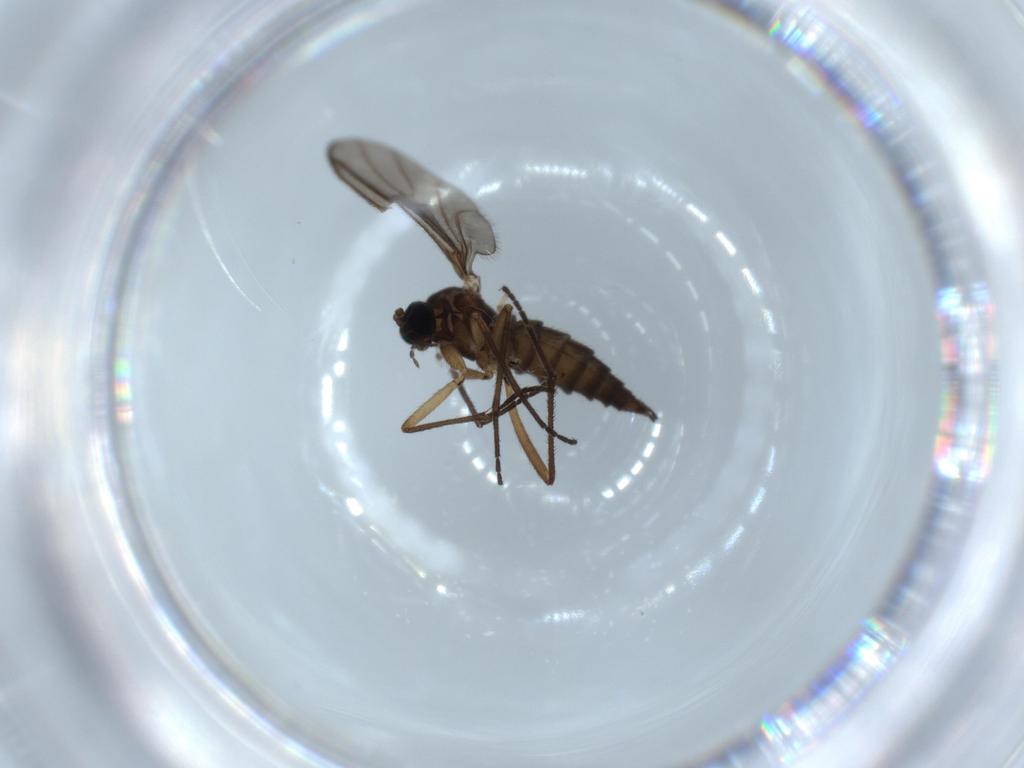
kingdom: Animalia
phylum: Arthropoda
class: Insecta
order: Diptera
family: Sciaridae
